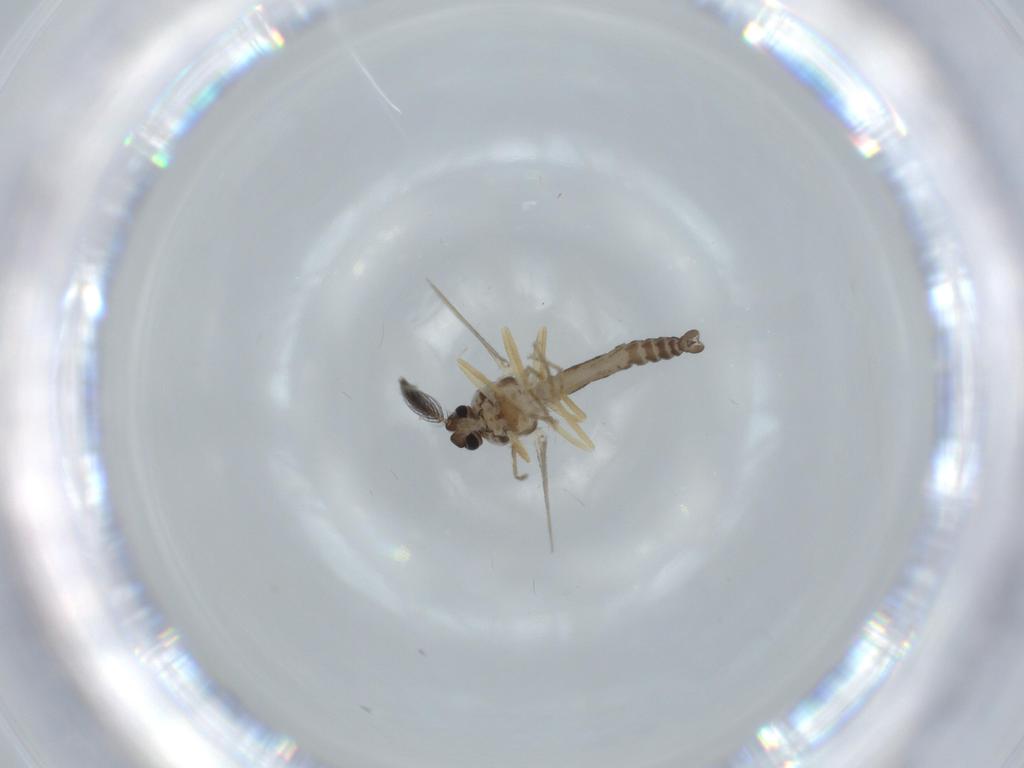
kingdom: Animalia
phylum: Arthropoda
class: Insecta
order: Diptera
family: Ceratopogonidae
